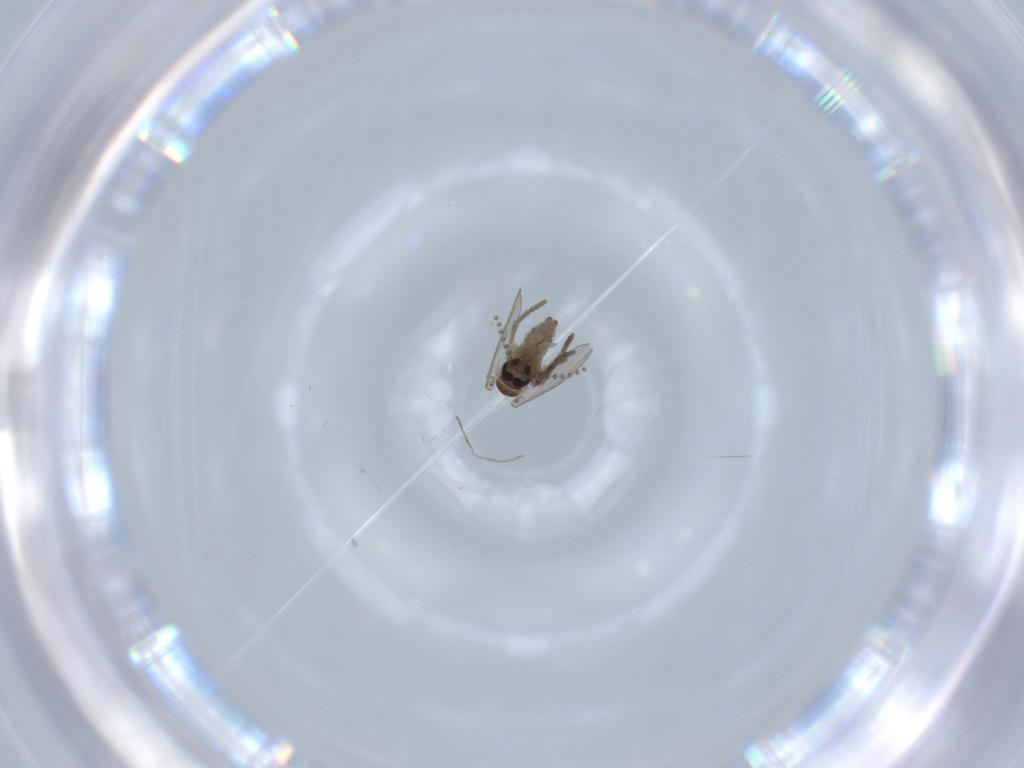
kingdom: Animalia
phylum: Arthropoda
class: Insecta
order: Diptera
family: Psychodidae
